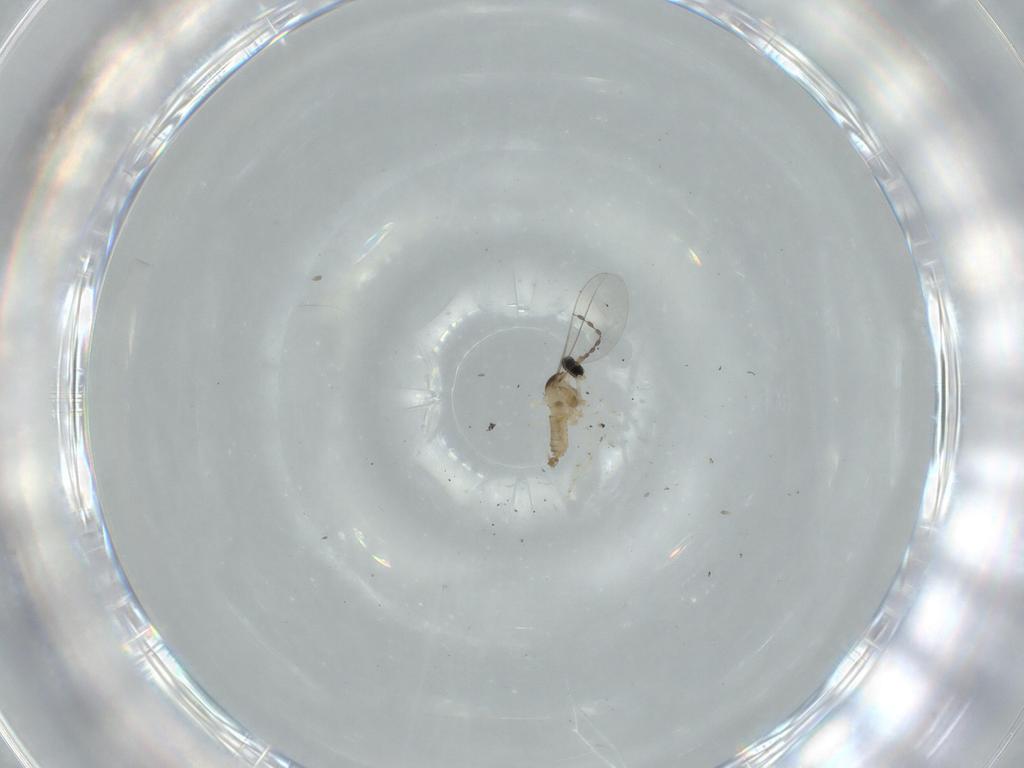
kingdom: Animalia
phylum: Arthropoda
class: Insecta
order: Diptera
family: Cecidomyiidae
